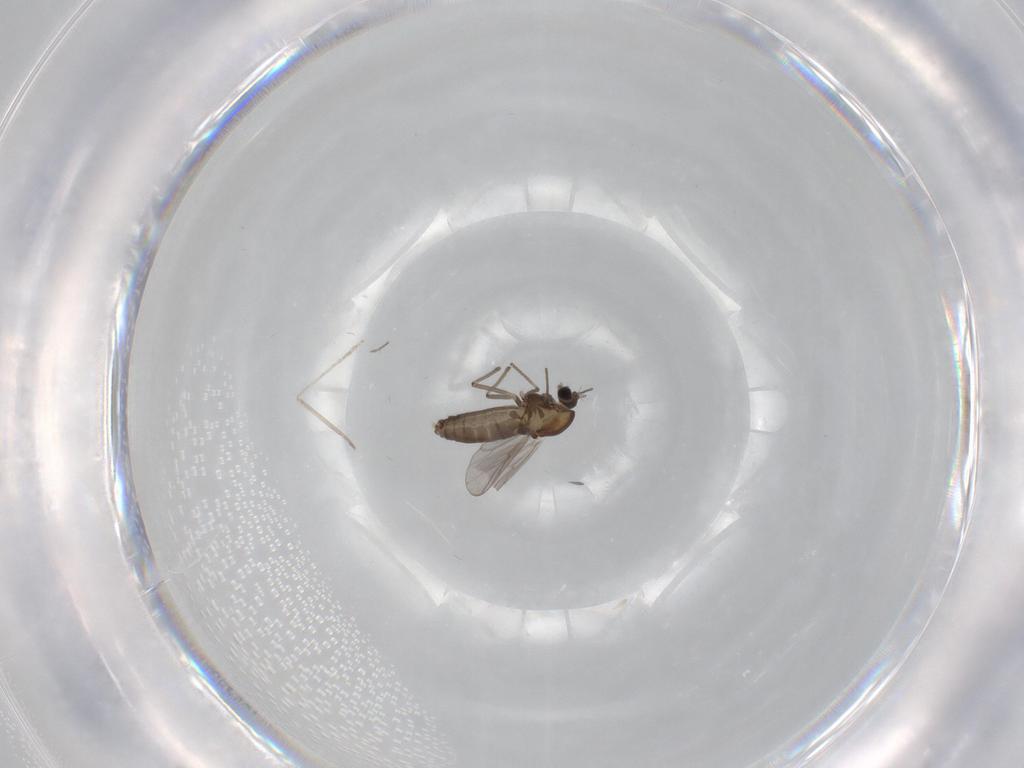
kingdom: Animalia
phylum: Arthropoda
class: Insecta
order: Diptera
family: Chironomidae
